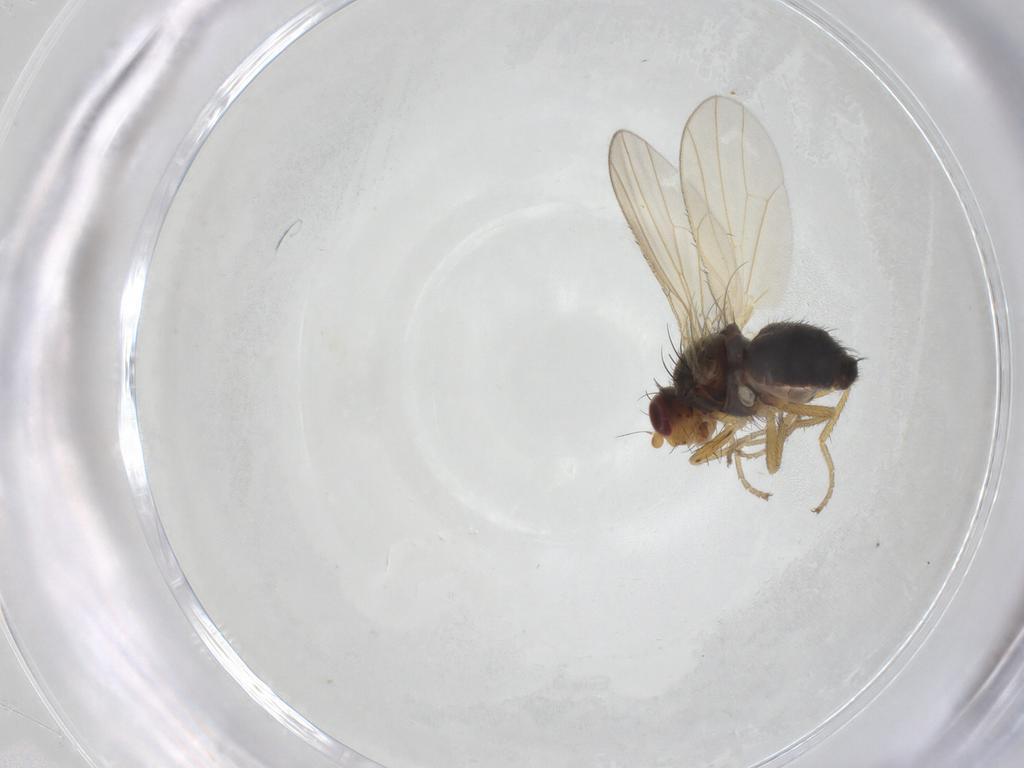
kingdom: Animalia
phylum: Arthropoda
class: Insecta
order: Diptera
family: Heleomyzidae
